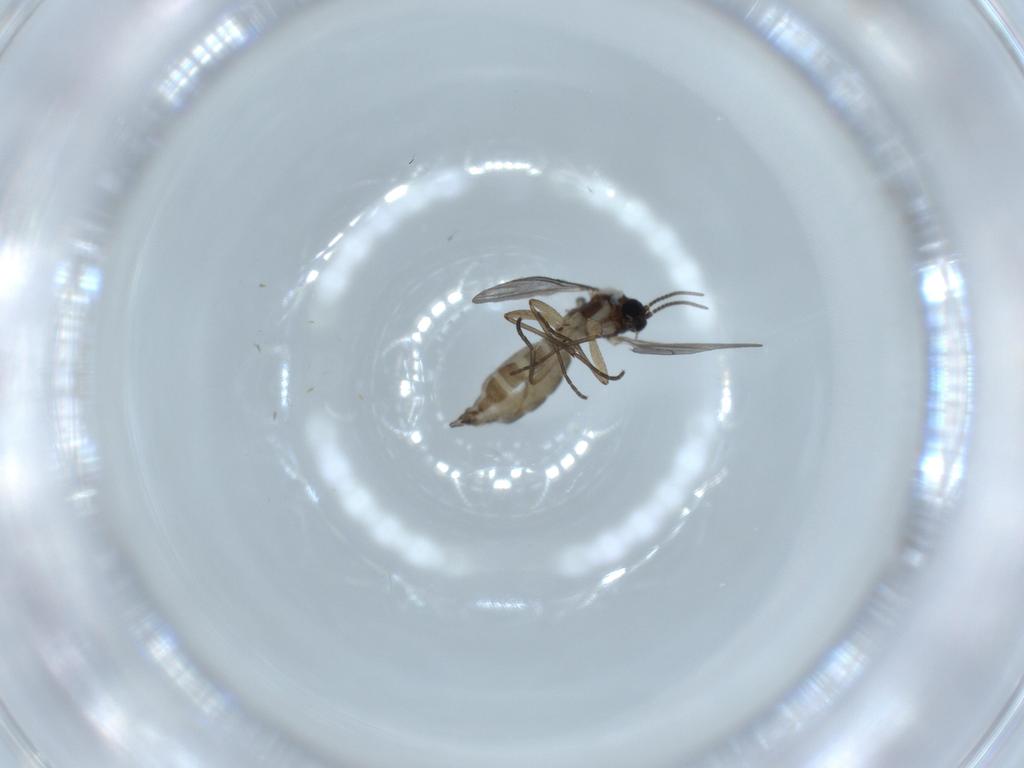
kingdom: Animalia
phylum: Arthropoda
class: Insecta
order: Diptera
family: Sciaridae
